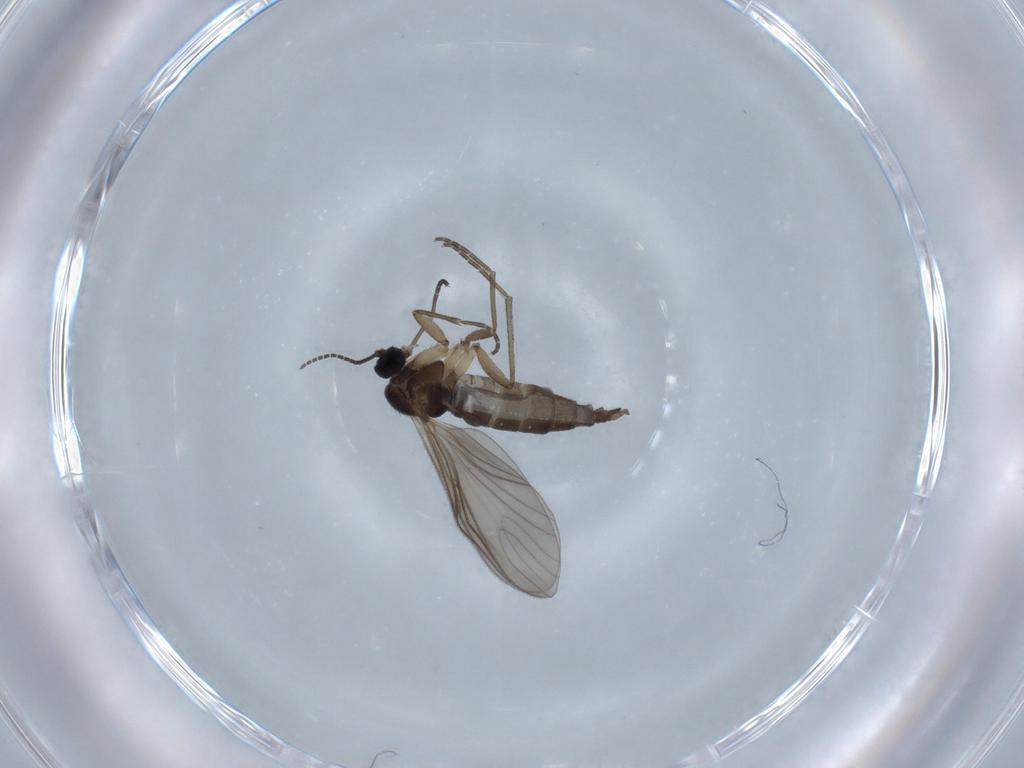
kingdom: Animalia
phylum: Arthropoda
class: Insecta
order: Diptera
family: Sciaridae
